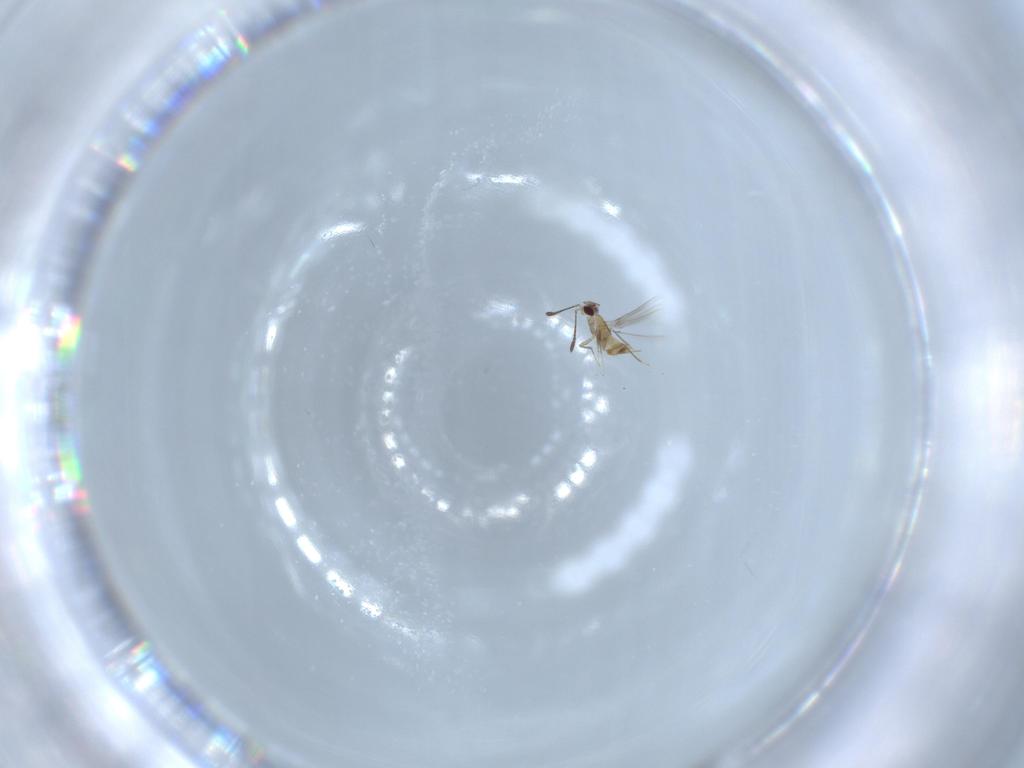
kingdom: Animalia
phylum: Arthropoda
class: Insecta
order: Hymenoptera
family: Mymaridae
